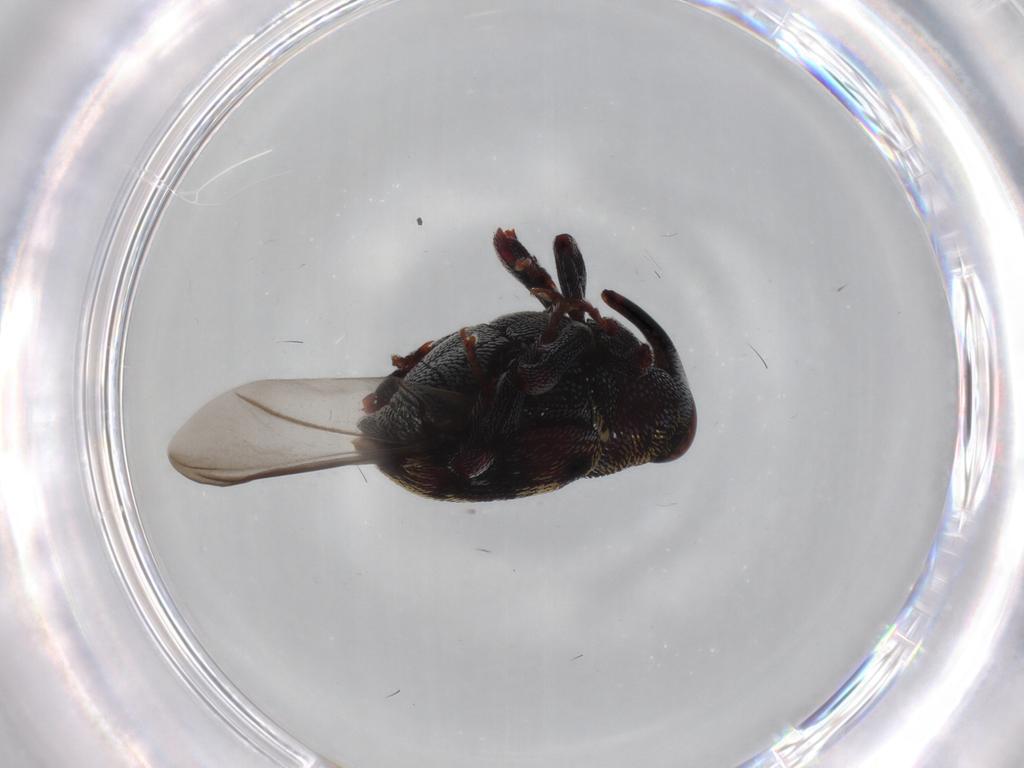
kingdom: Animalia
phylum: Arthropoda
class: Insecta
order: Coleoptera
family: Curculionidae
